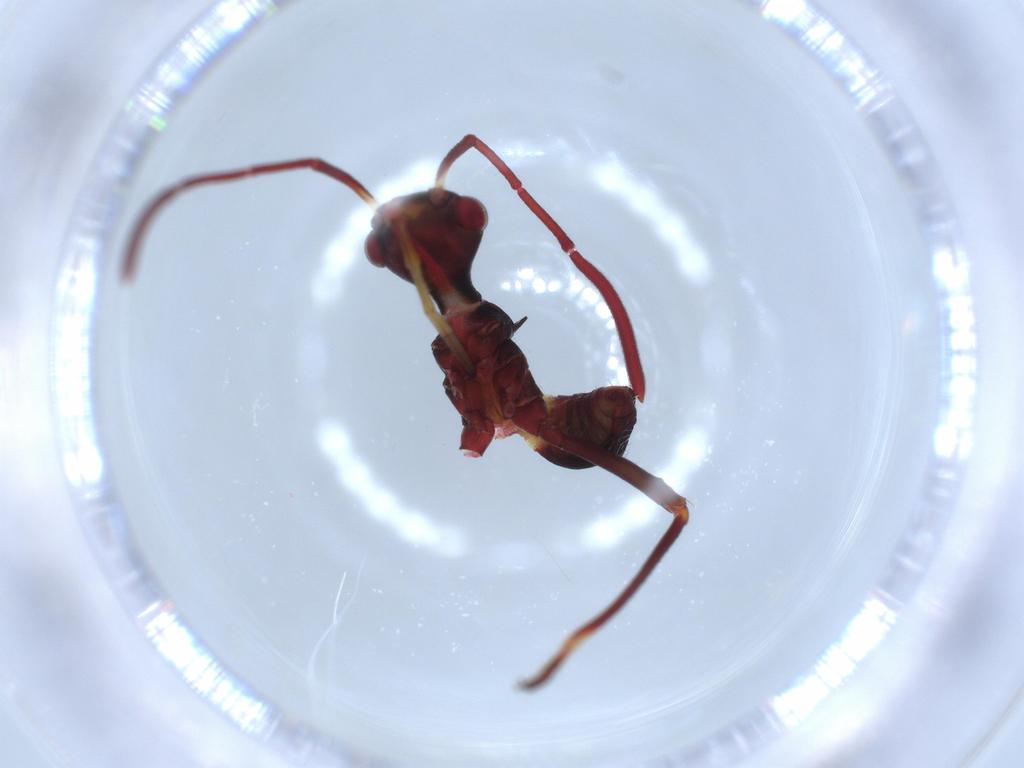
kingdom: Animalia
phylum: Arthropoda
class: Insecta
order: Hemiptera
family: Alydidae
